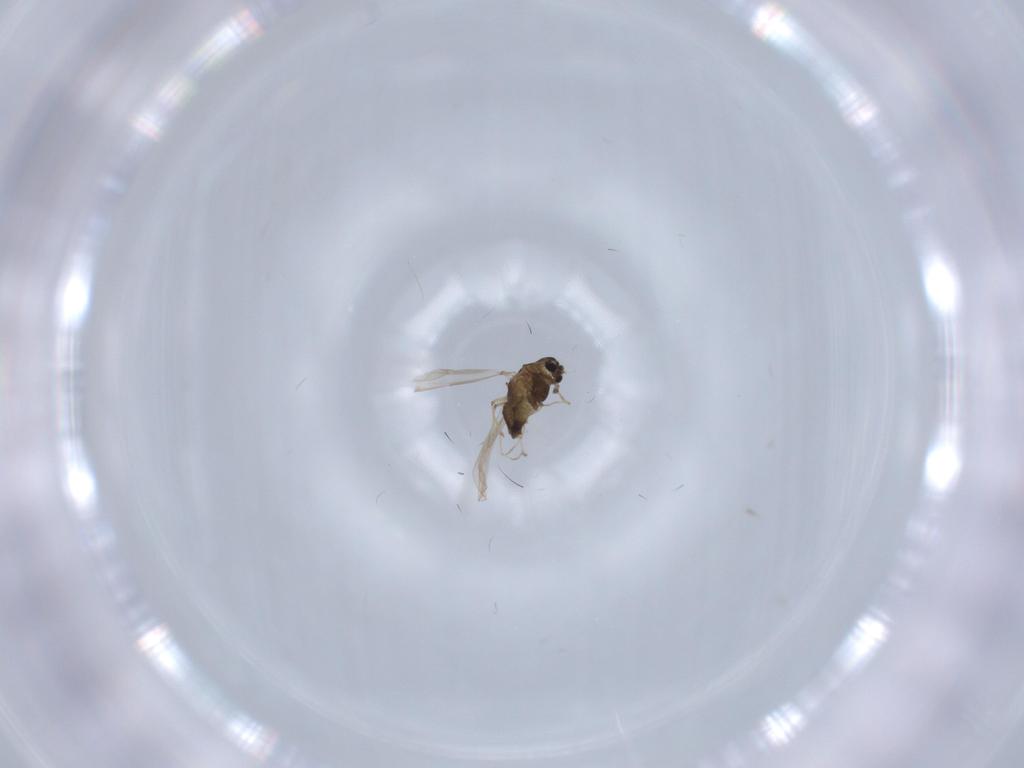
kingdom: Animalia
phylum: Arthropoda
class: Insecta
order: Diptera
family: Chironomidae
